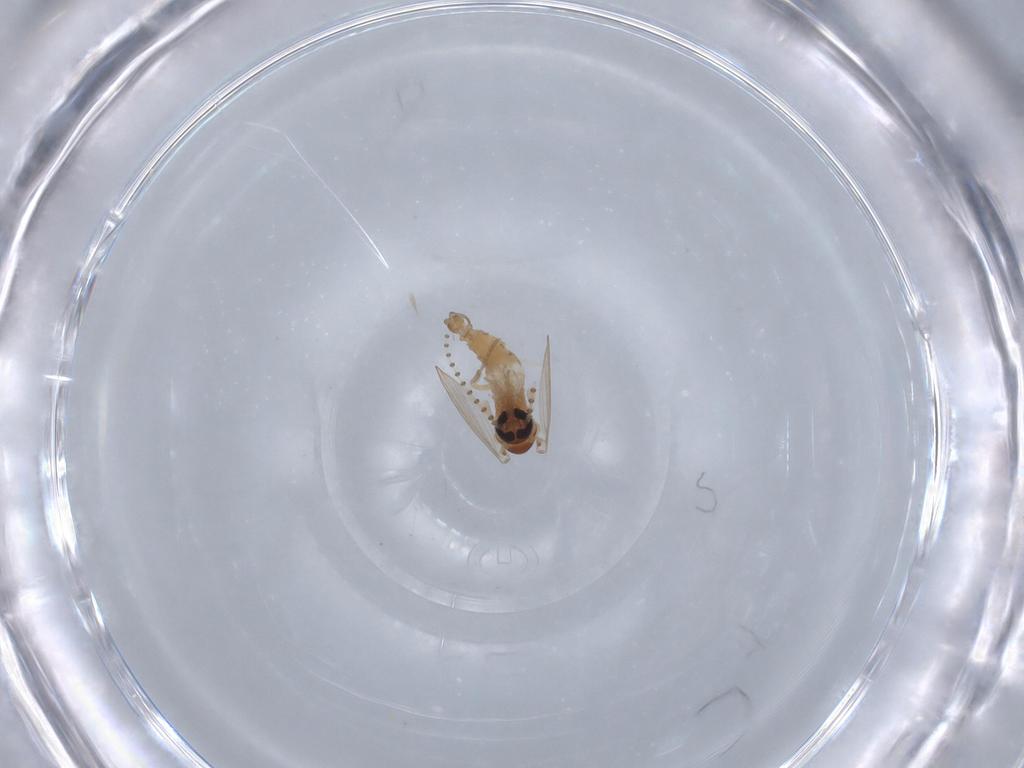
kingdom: Animalia
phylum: Arthropoda
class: Insecta
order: Diptera
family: Psychodidae
